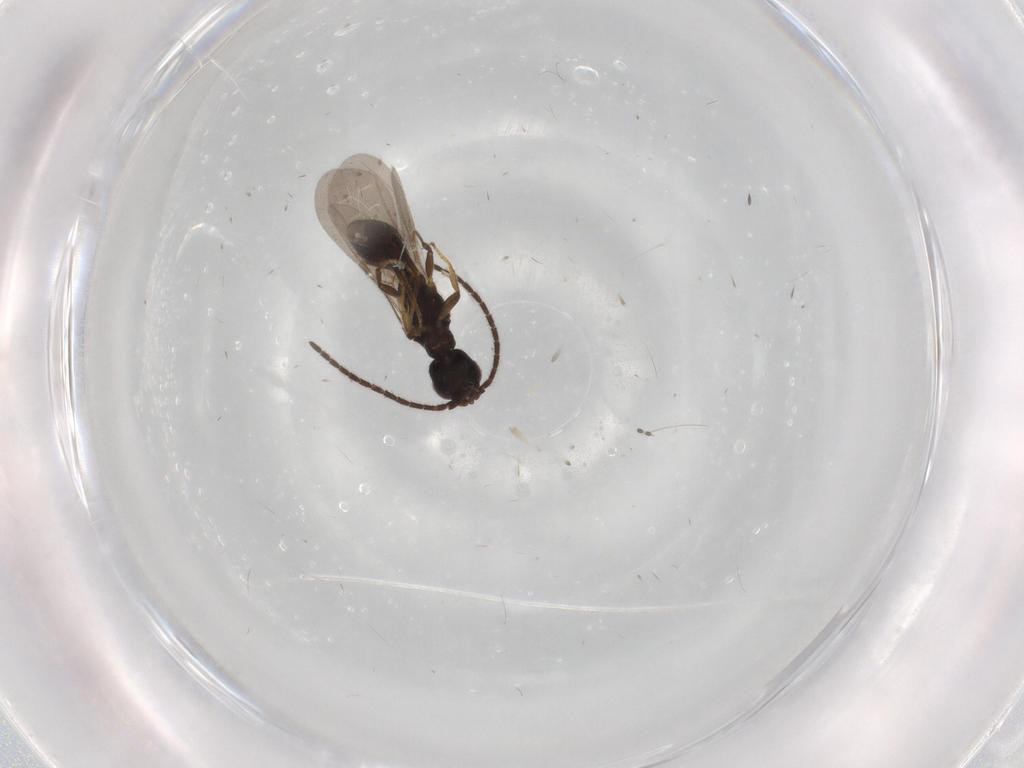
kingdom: Animalia
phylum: Arthropoda
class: Insecta
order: Hymenoptera
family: Bethylidae
